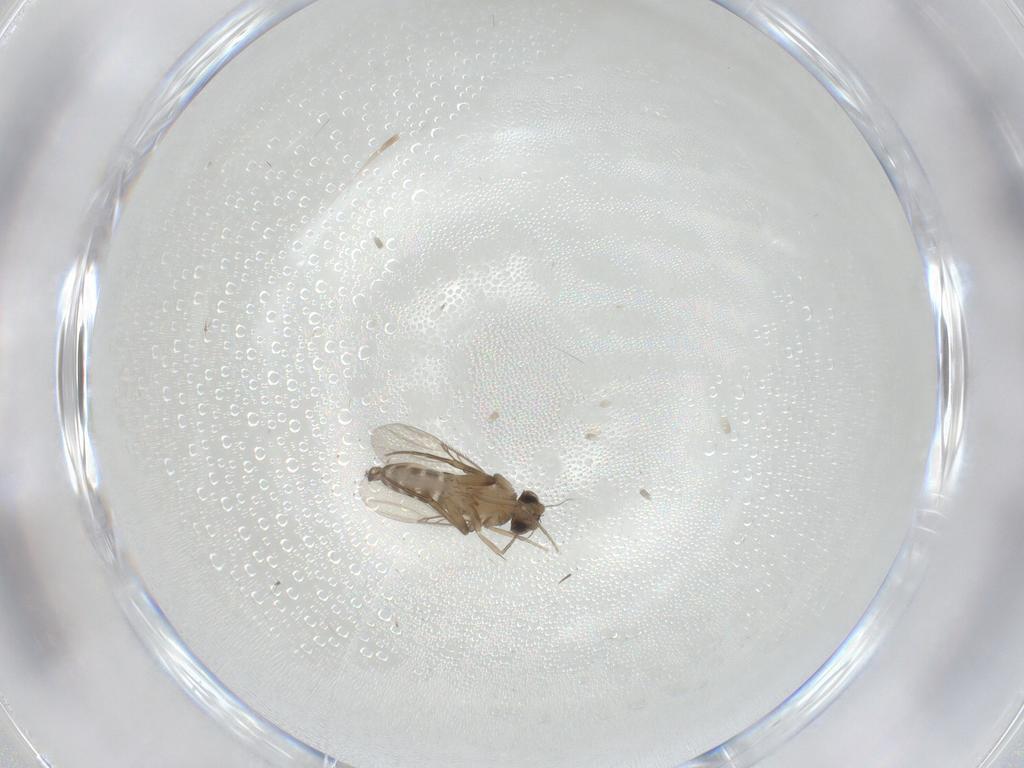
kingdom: Animalia
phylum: Arthropoda
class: Insecta
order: Diptera
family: Phoridae
